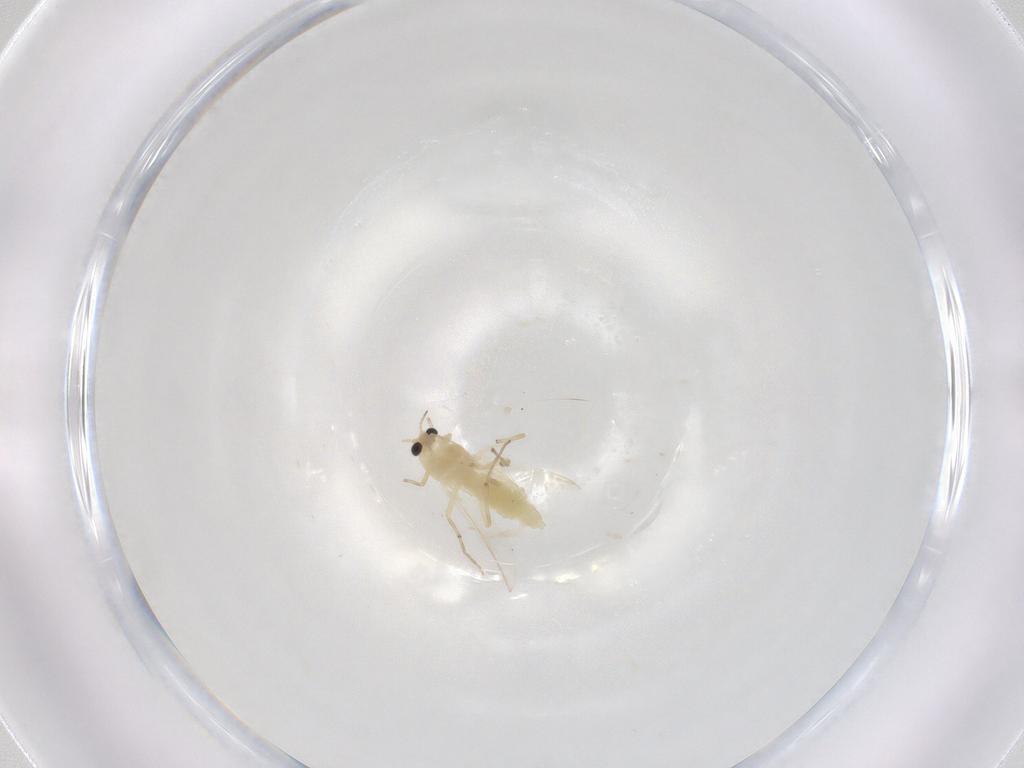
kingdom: Animalia
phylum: Arthropoda
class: Insecta
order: Diptera
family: Chironomidae
